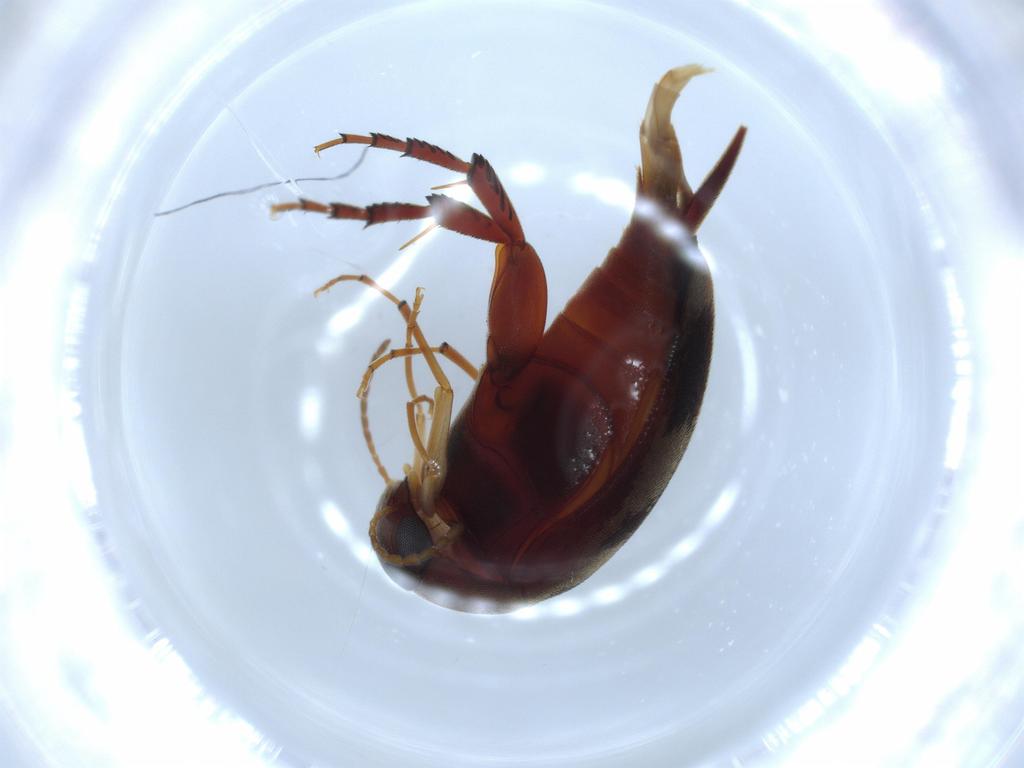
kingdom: Animalia
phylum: Arthropoda
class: Insecta
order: Coleoptera
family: Mordellidae
